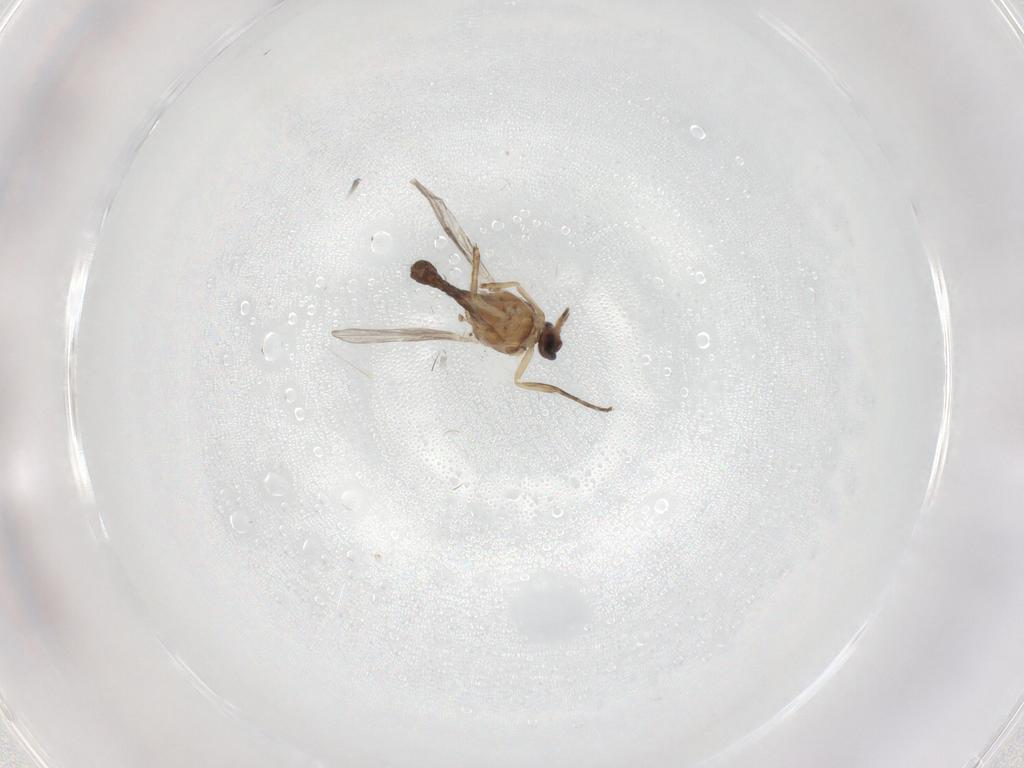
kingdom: Animalia
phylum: Arthropoda
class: Insecta
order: Diptera
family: Ceratopogonidae
